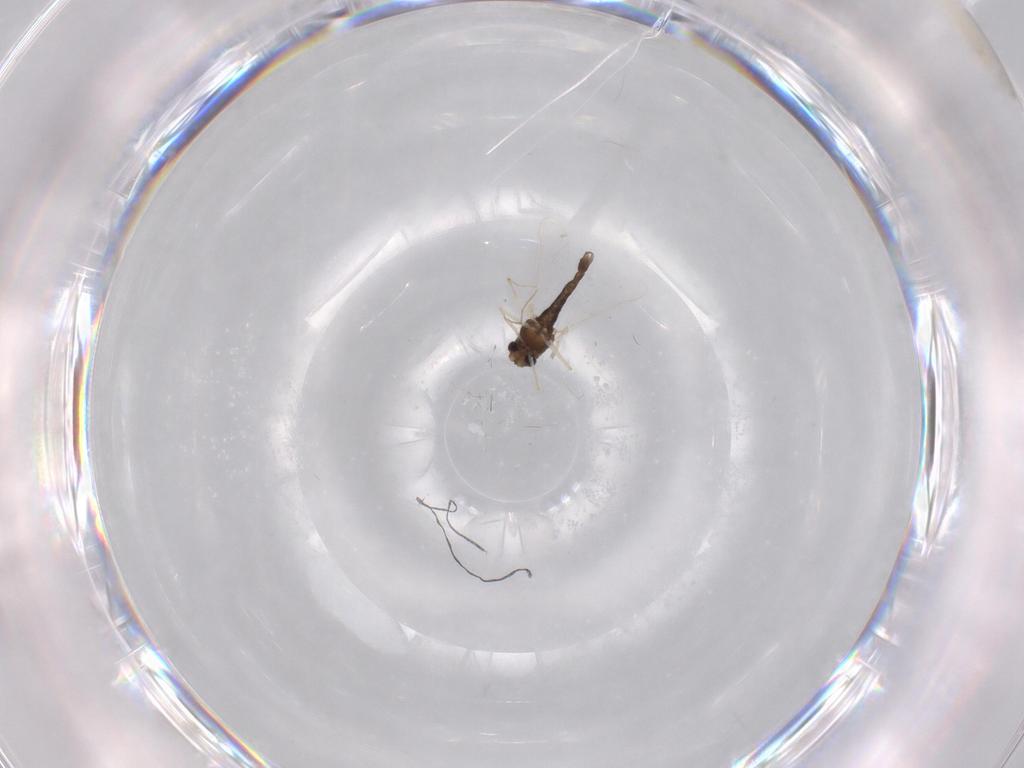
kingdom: Animalia
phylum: Arthropoda
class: Insecta
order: Diptera
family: Chironomidae
